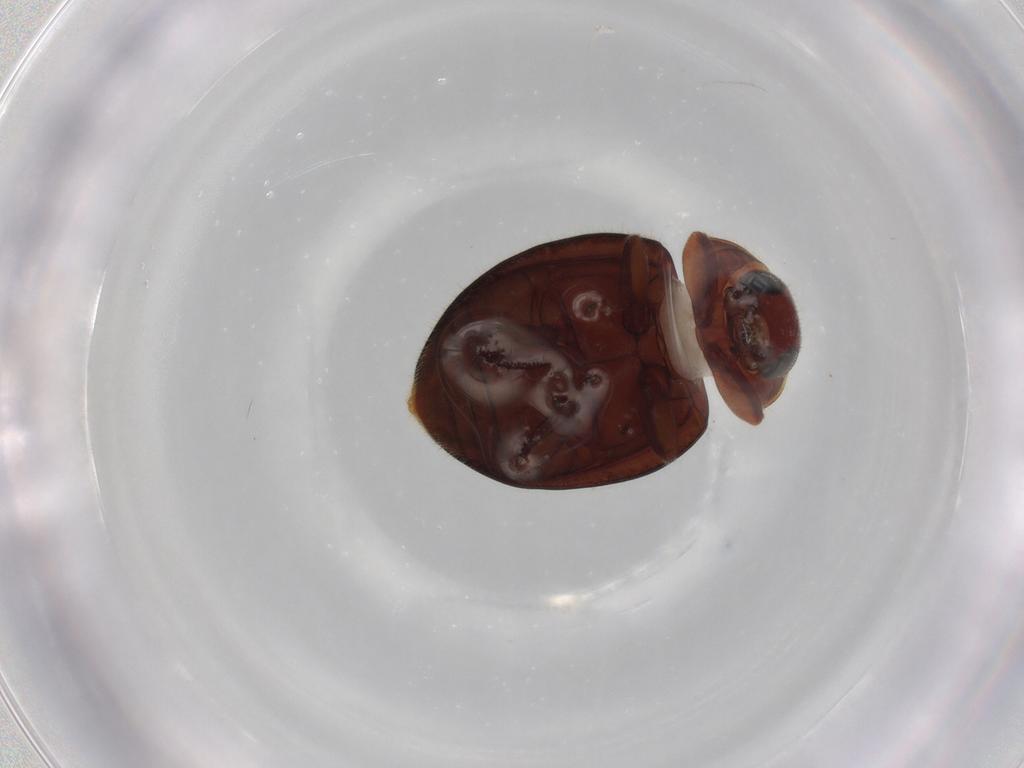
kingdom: Animalia
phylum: Arthropoda
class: Insecta
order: Coleoptera
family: Coccinellidae
